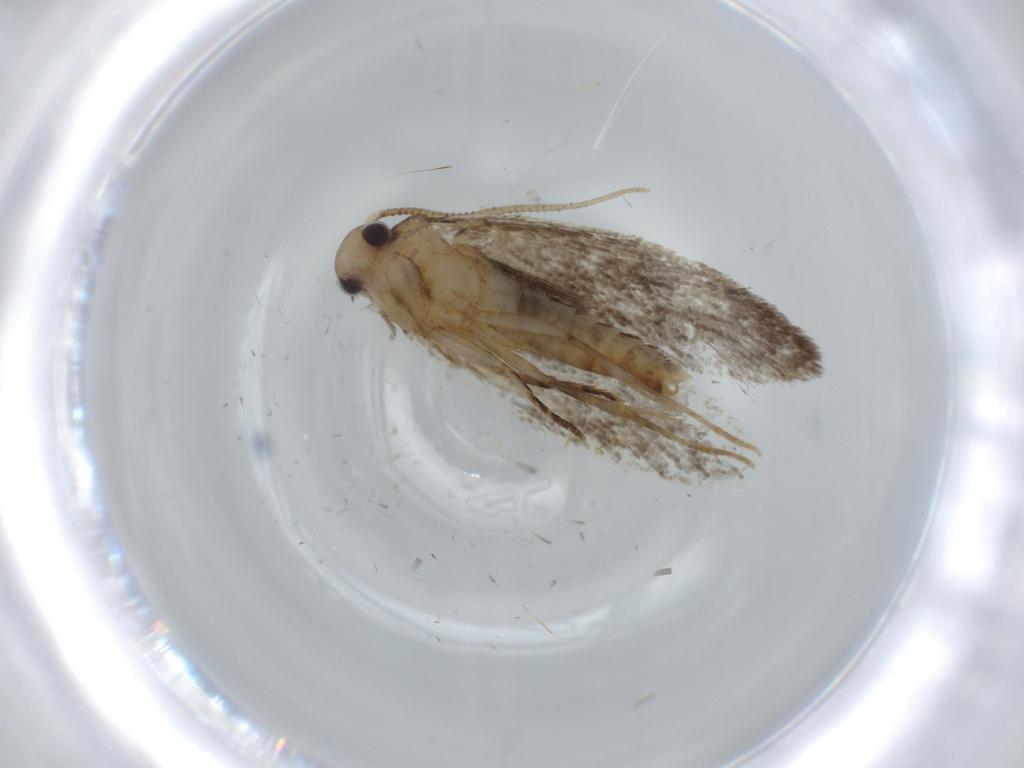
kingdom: Animalia
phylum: Arthropoda
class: Insecta
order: Lepidoptera
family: Tineidae
